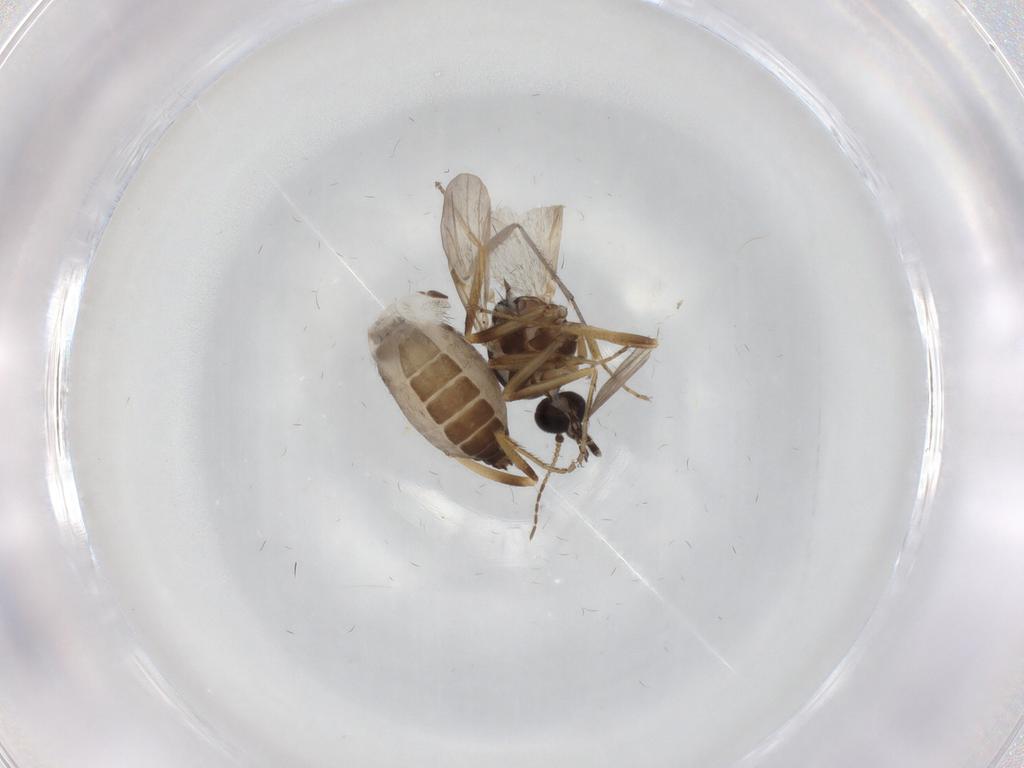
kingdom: Animalia
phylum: Arthropoda
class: Insecta
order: Diptera
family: Ceratopogonidae
